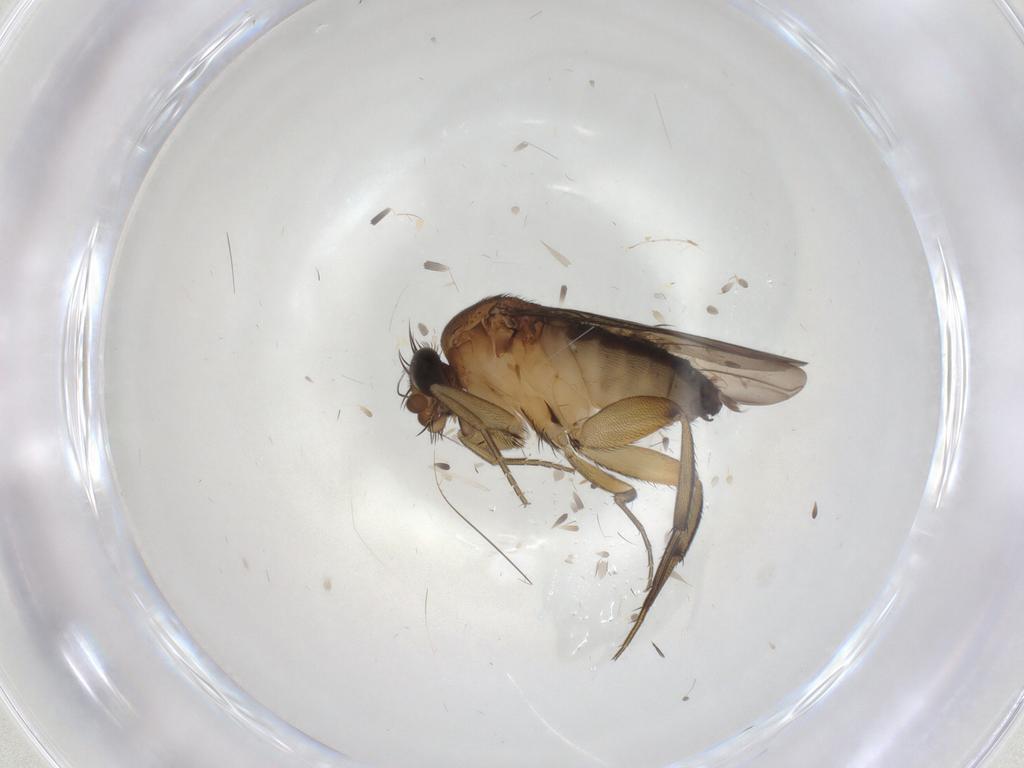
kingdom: Animalia
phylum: Arthropoda
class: Insecta
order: Diptera
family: Phoridae
